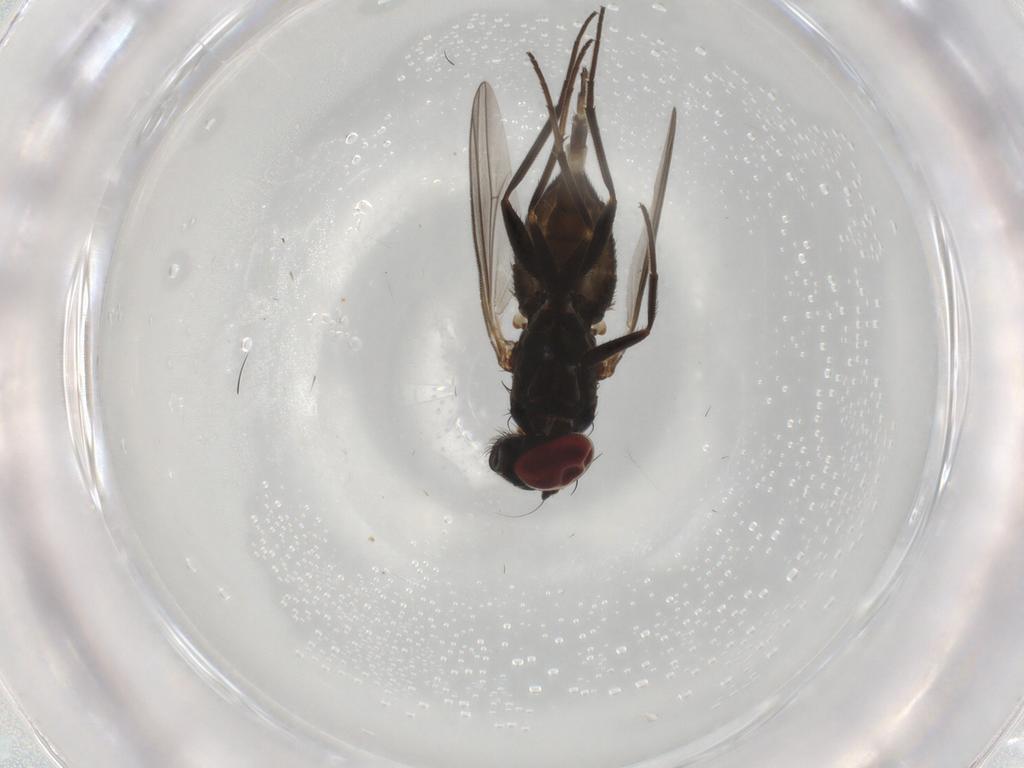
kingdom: Animalia
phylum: Arthropoda
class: Insecta
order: Diptera
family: Dolichopodidae
